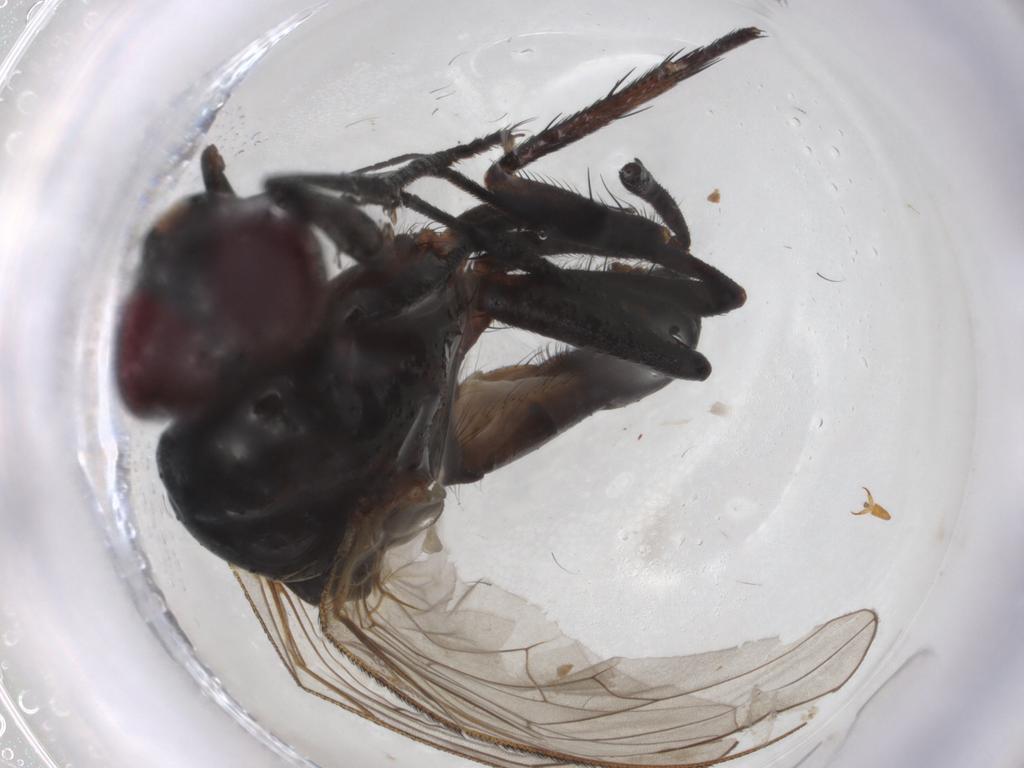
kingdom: Animalia
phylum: Arthropoda
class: Insecta
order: Diptera
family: Anthomyiidae
